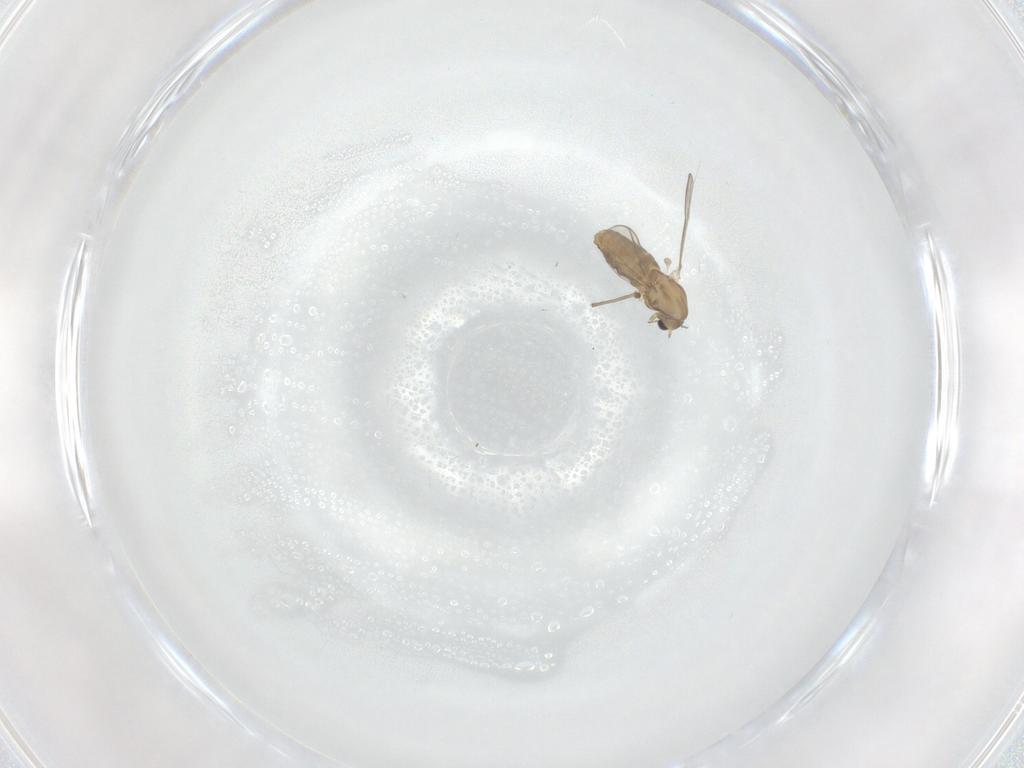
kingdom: Animalia
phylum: Arthropoda
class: Insecta
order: Diptera
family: Chironomidae
